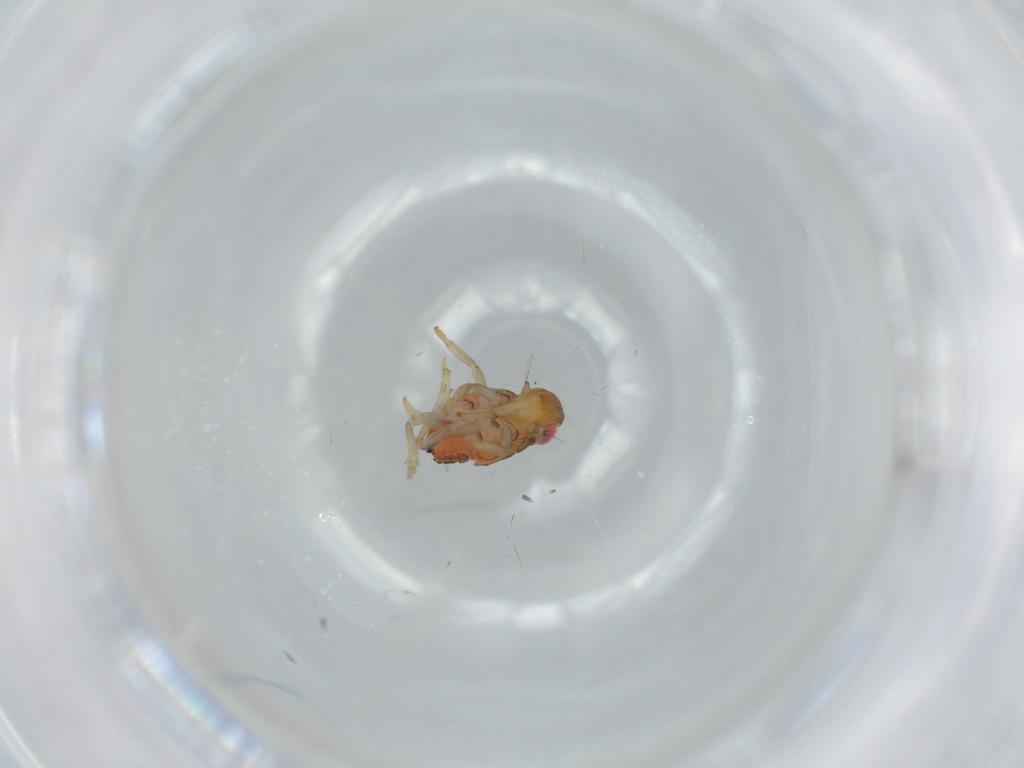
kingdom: Animalia
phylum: Arthropoda
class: Insecta
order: Hemiptera
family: Issidae
